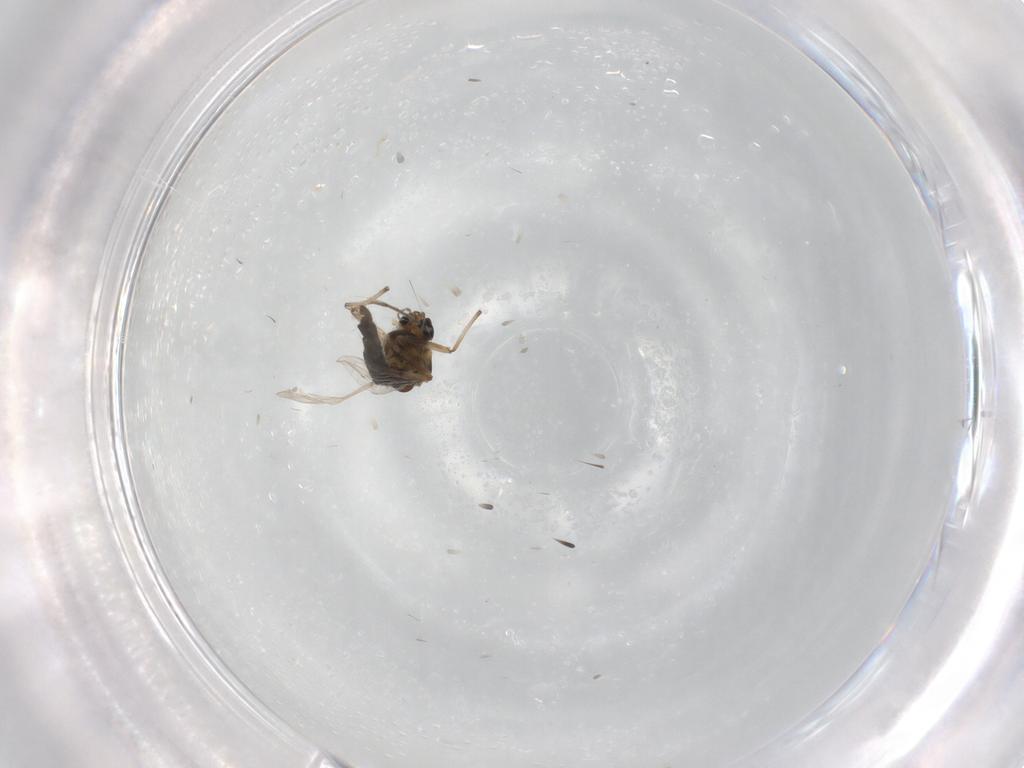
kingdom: Animalia
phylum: Arthropoda
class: Insecta
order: Diptera
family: Chironomidae
